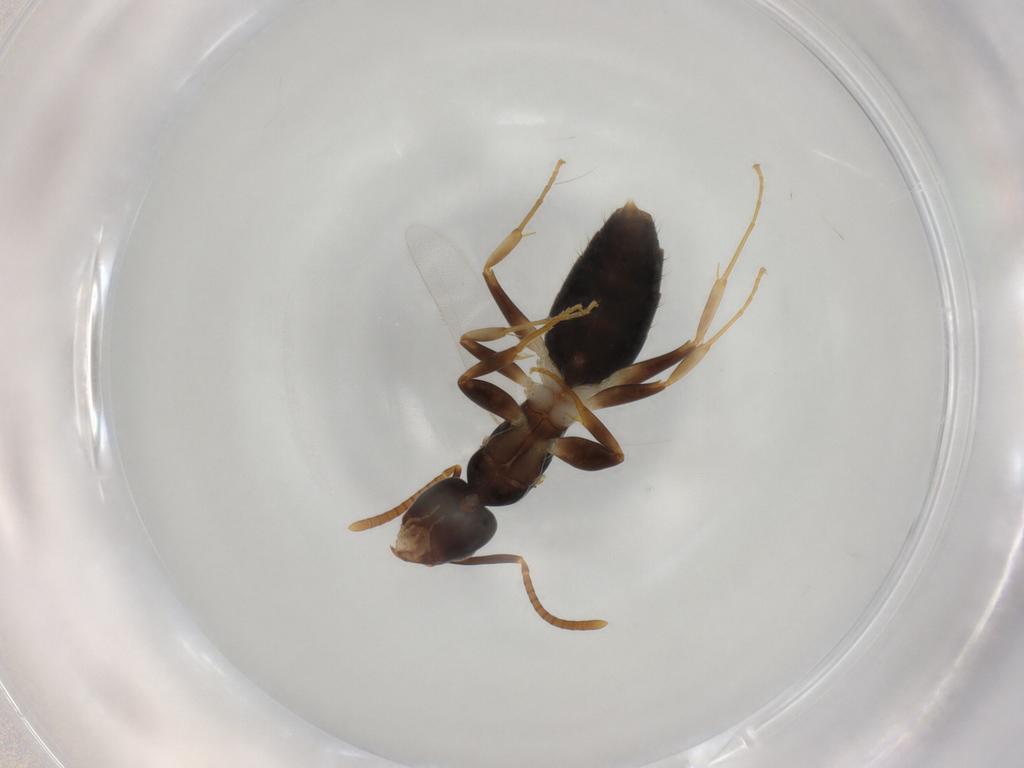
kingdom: Animalia
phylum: Arthropoda
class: Insecta
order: Hymenoptera
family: Formicidae
